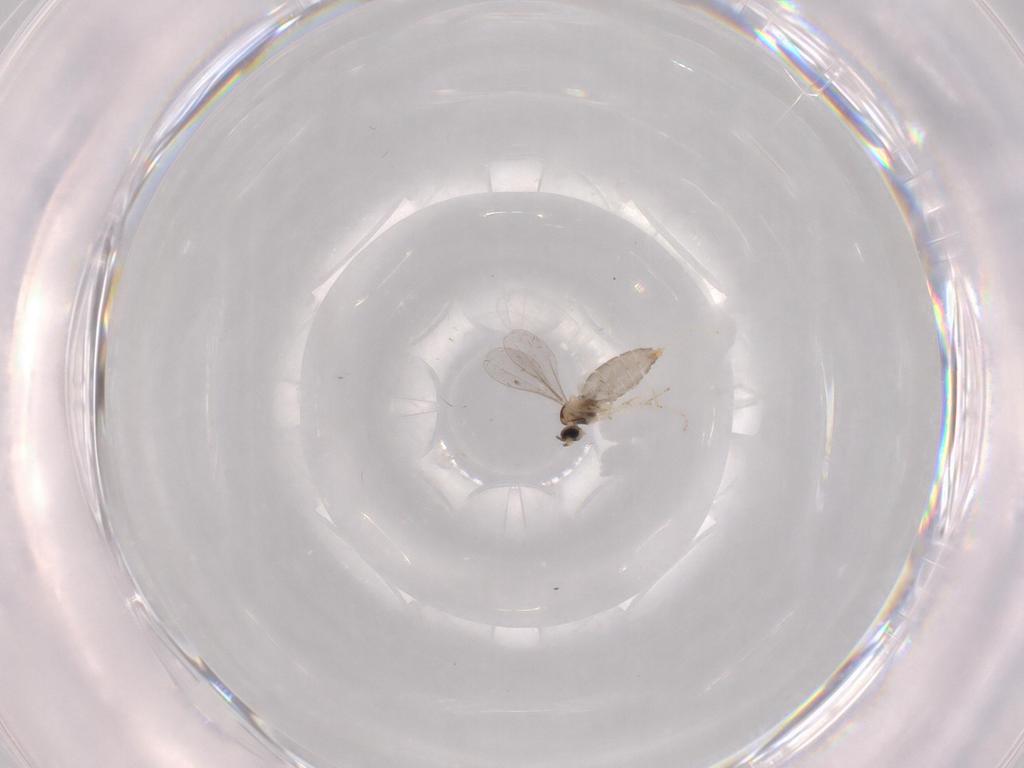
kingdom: Animalia
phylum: Arthropoda
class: Insecta
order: Diptera
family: Cecidomyiidae
